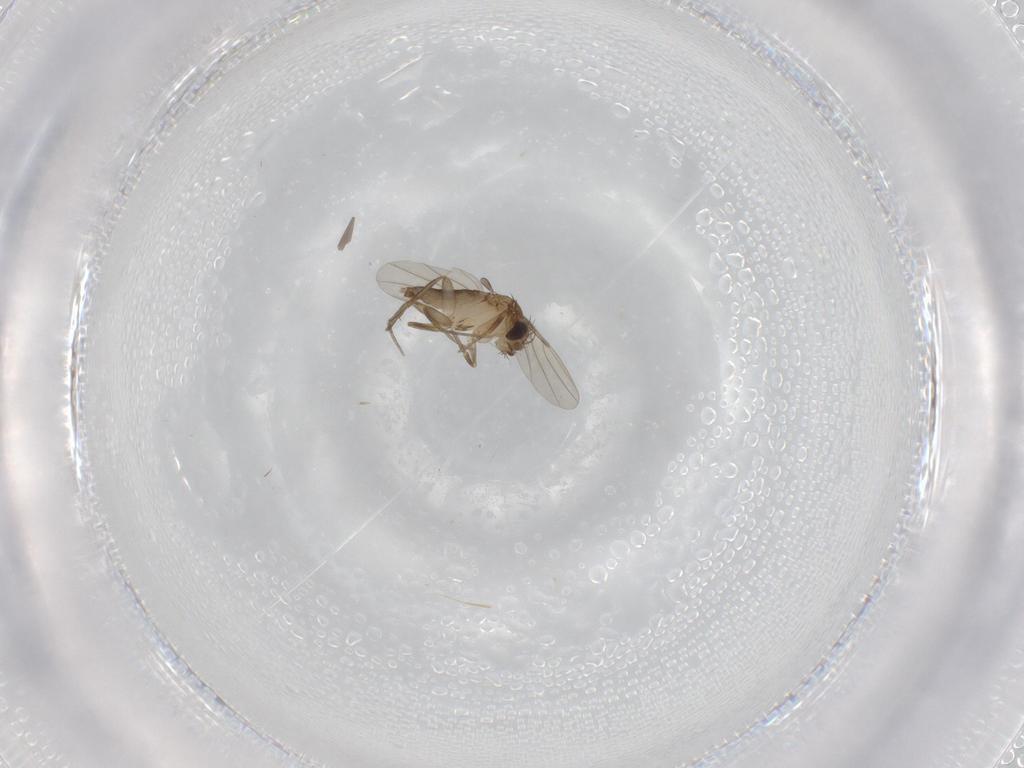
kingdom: Animalia
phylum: Arthropoda
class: Insecta
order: Diptera
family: Phoridae
